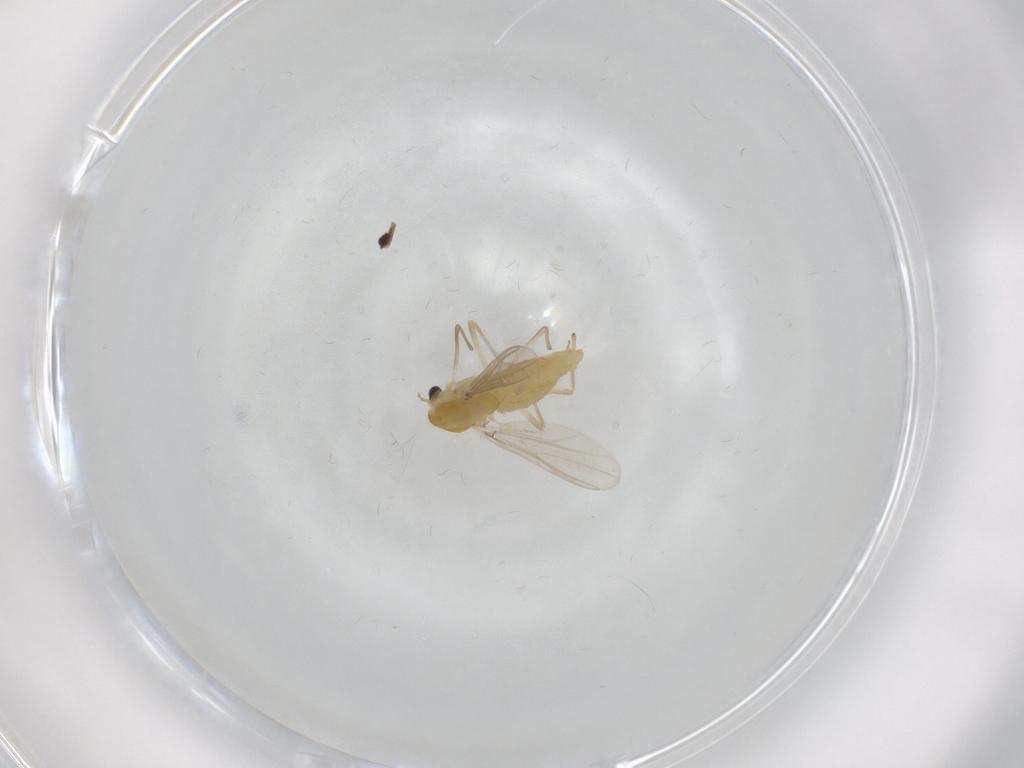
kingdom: Animalia
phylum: Arthropoda
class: Insecta
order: Diptera
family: Chironomidae
